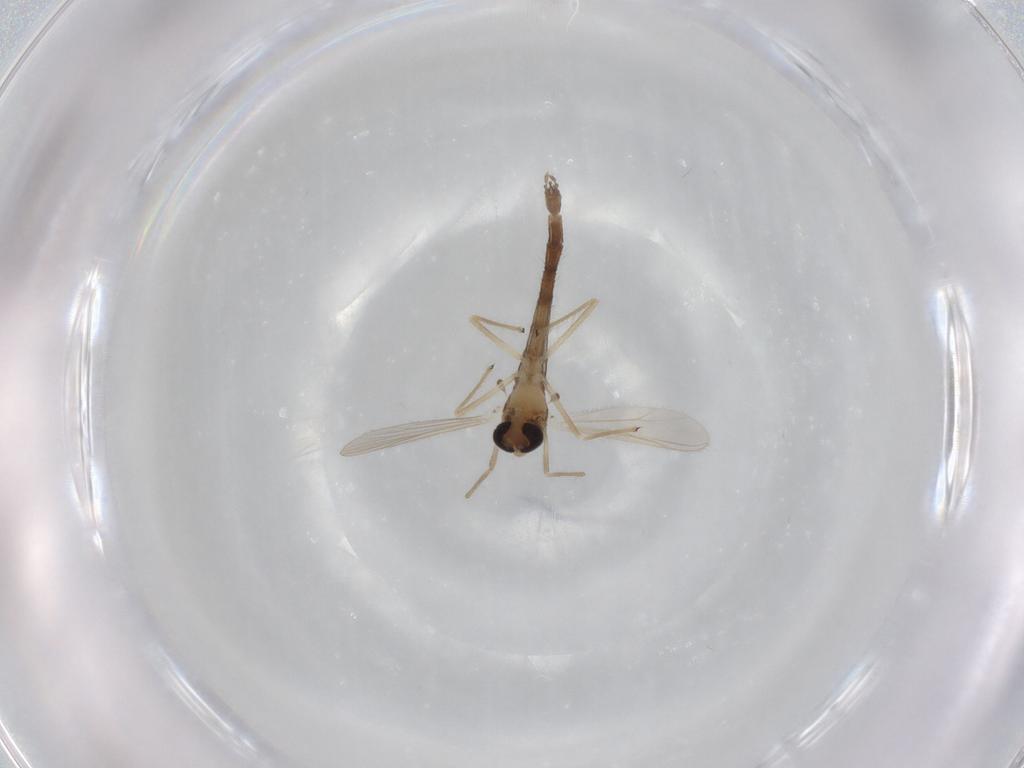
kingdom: Animalia
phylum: Arthropoda
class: Insecta
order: Diptera
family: Chironomidae
